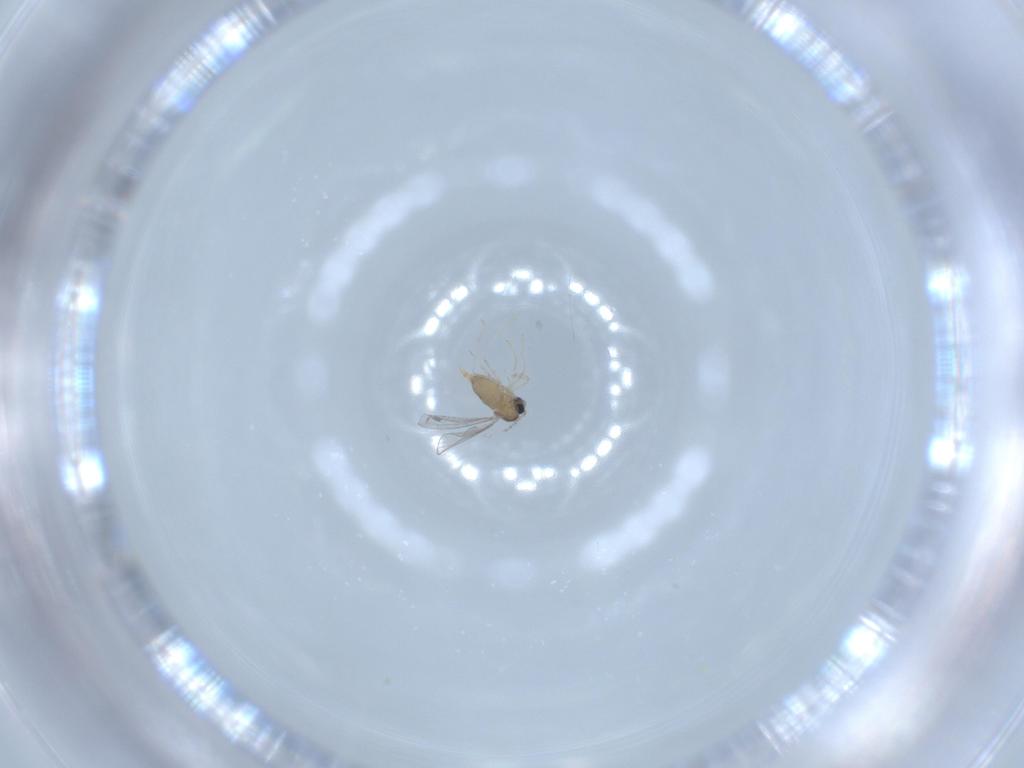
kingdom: Animalia
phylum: Arthropoda
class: Insecta
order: Diptera
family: Cecidomyiidae
